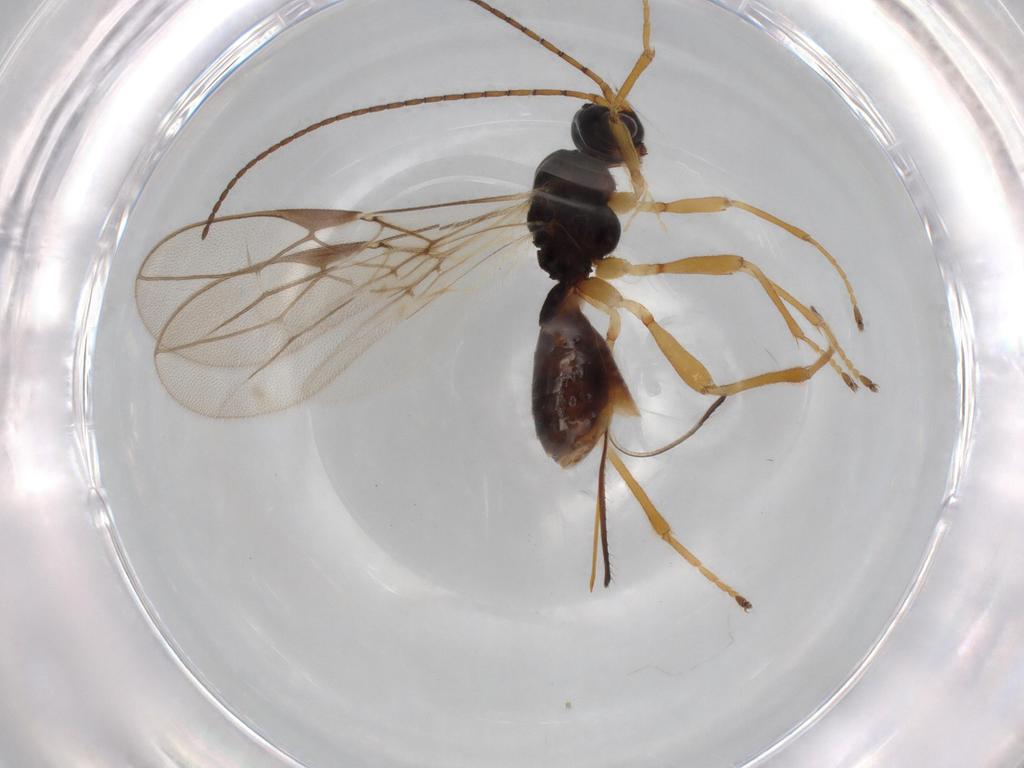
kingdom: Animalia
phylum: Arthropoda
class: Insecta
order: Hymenoptera
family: Braconidae
